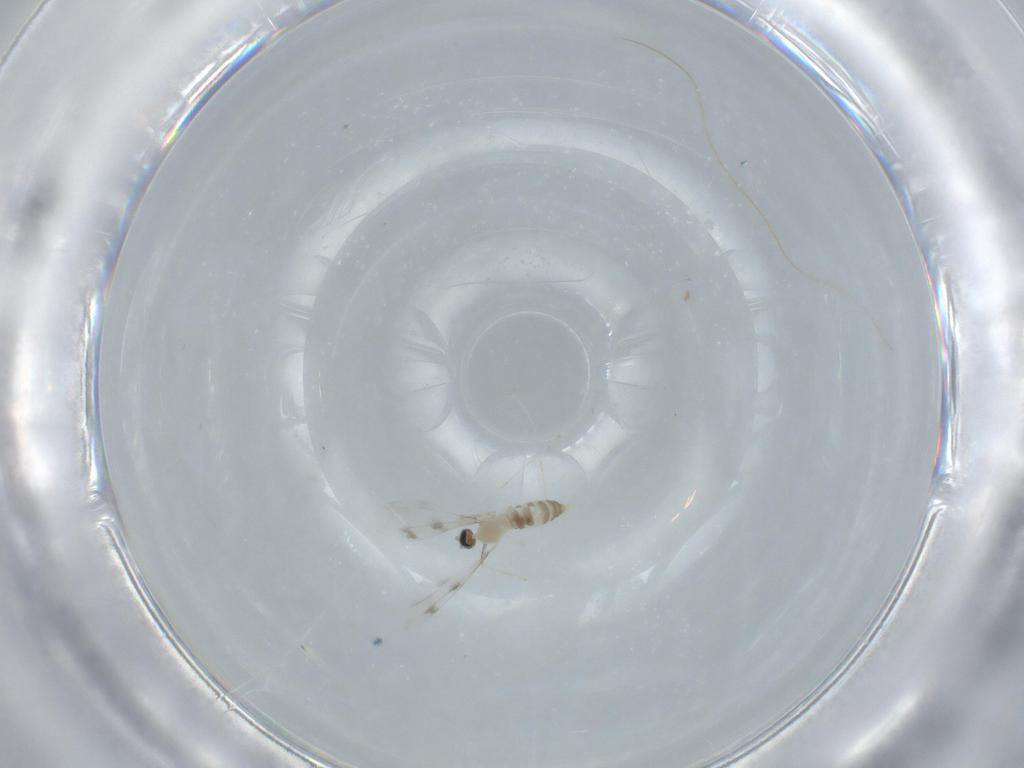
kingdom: Animalia
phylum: Arthropoda
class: Insecta
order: Diptera
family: Cecidomyiidae
